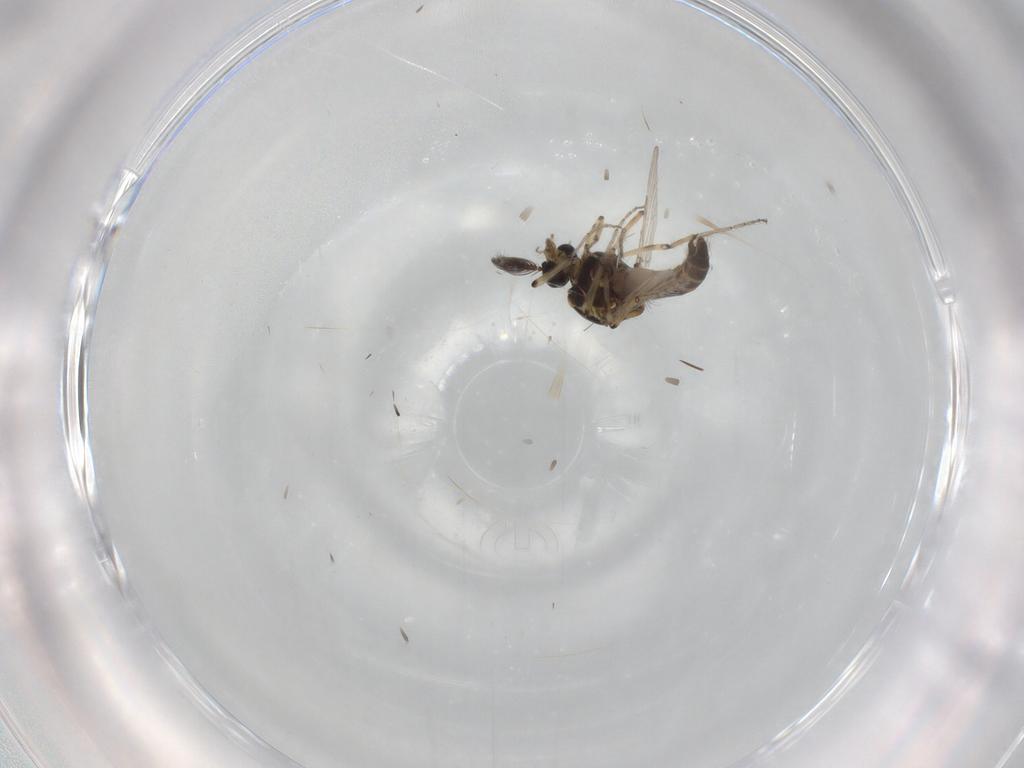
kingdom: Animalia
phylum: Arthropoda
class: Insecta
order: Diptera
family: Ceratopogonidae
